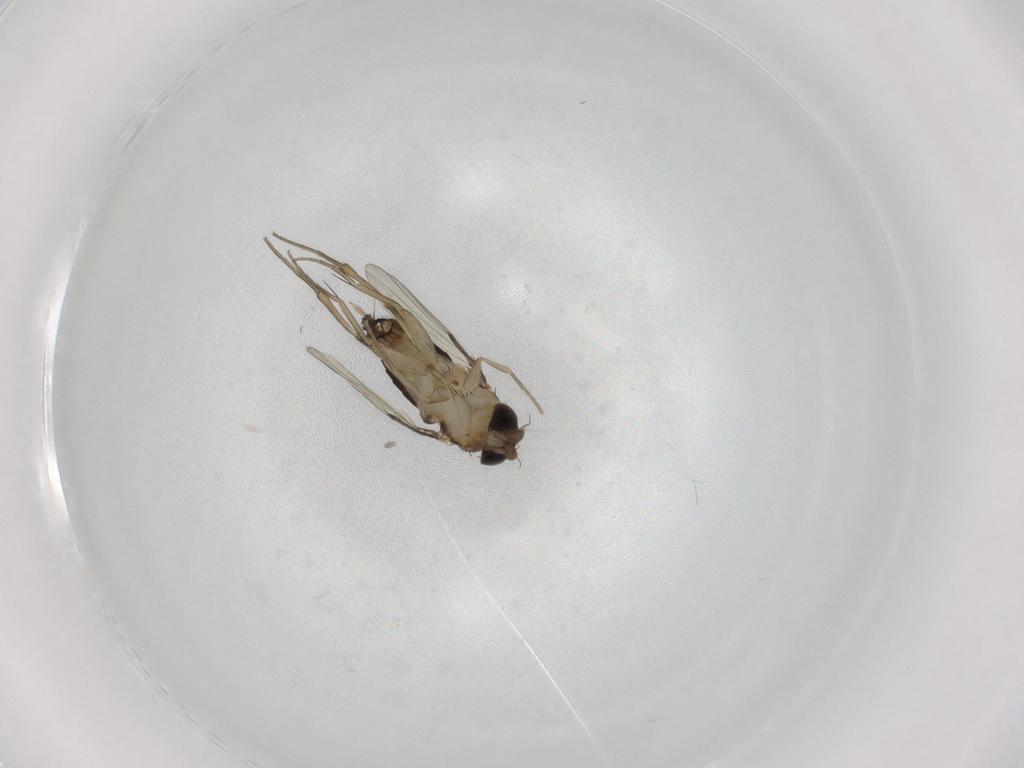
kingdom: Animalia
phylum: Arthropoda
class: Insecta
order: Diptera
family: Phoridae
